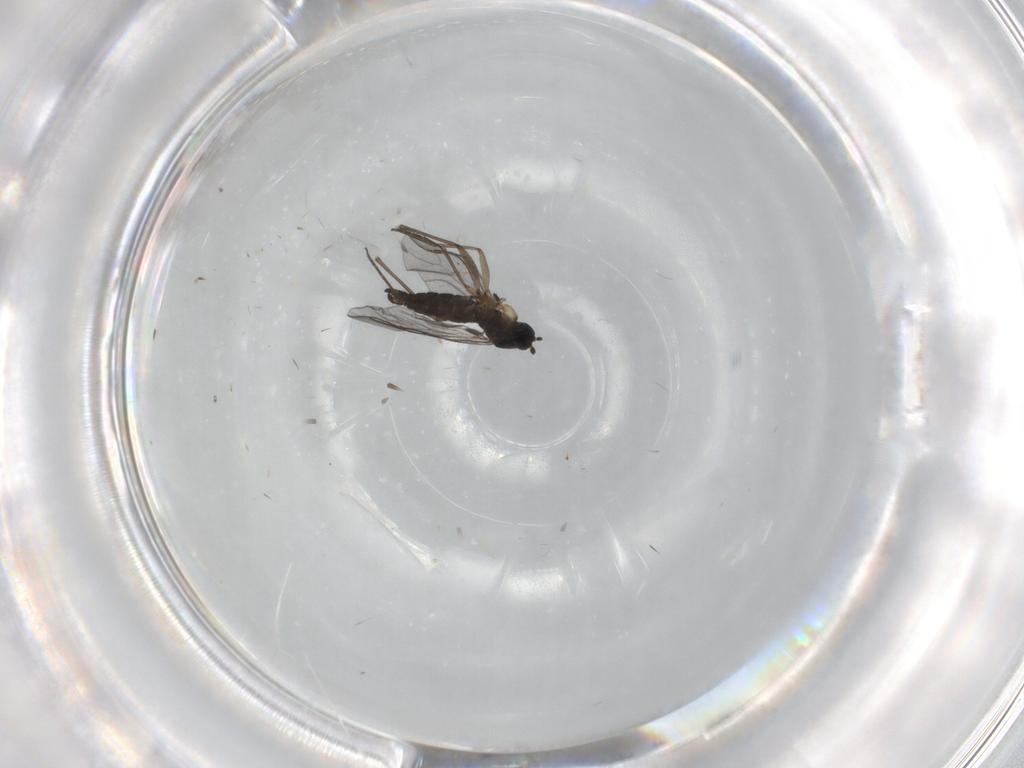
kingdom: Animalia
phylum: Arthropoda
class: Insecta
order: Diptera
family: Sciaridae
